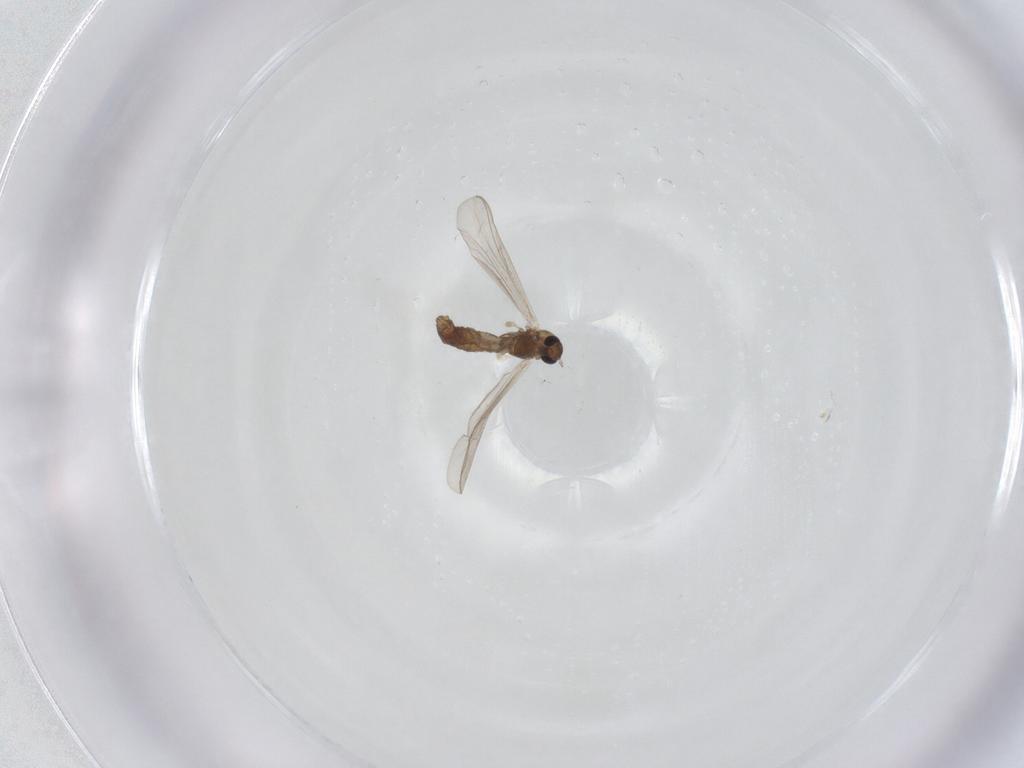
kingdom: Animalia
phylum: Arthropoda
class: Insecta
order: Diptera
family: Chironomidae
